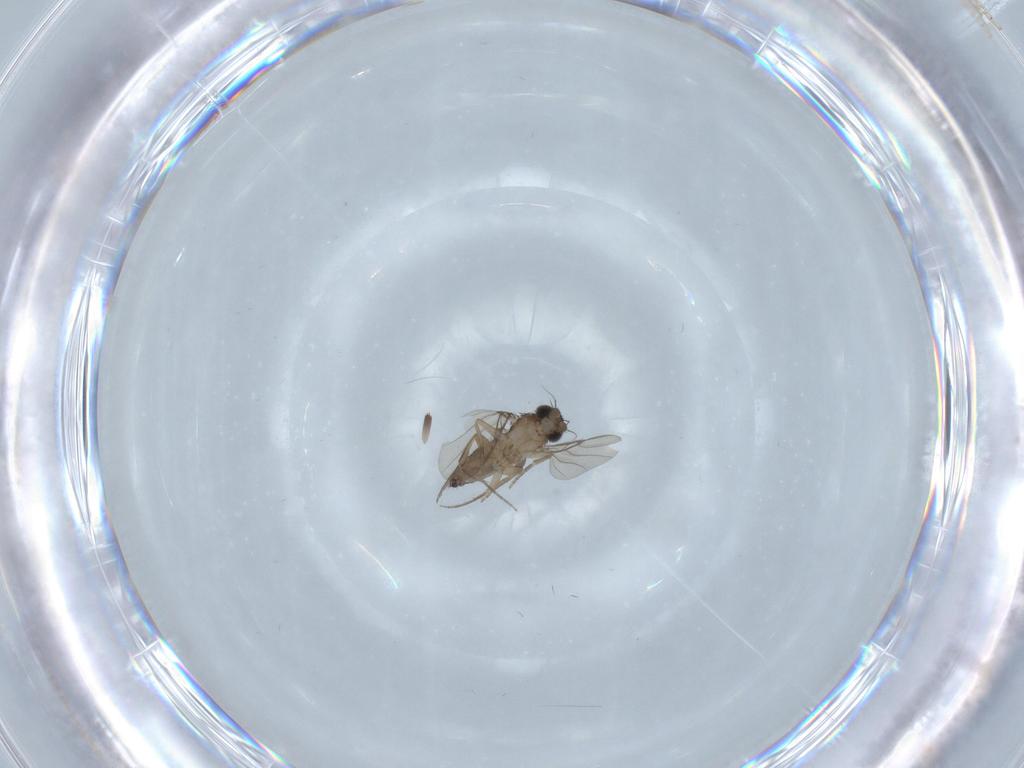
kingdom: Animalia
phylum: Arthropoda
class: Insecta
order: Diptera
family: Phoridae
